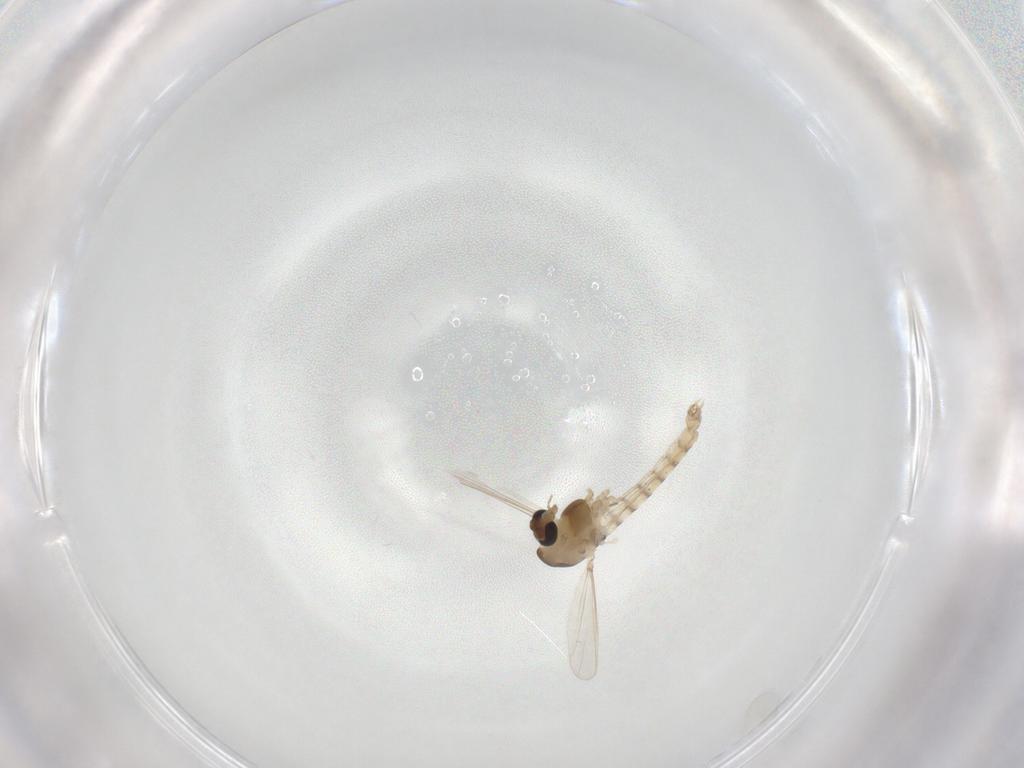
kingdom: Animalia
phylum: Arthropoda
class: Insecta
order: Diptera
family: Chironomidae
